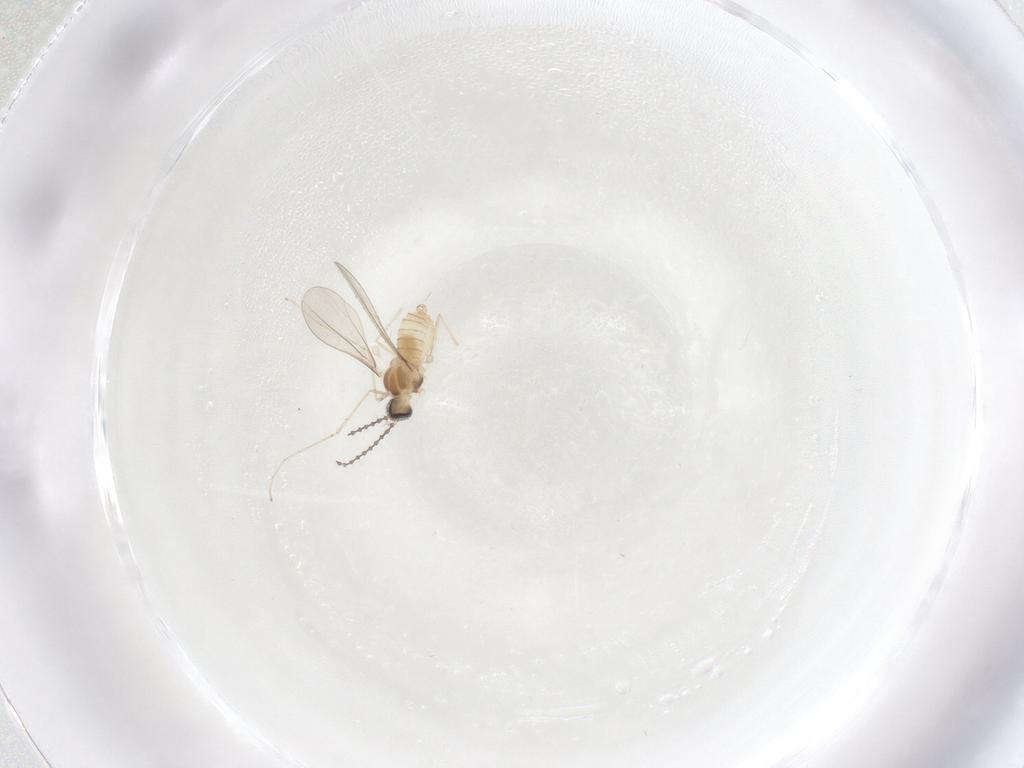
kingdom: Animalia
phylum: Arthropoda
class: Insecta
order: Diptera
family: Cecidomyiidae
